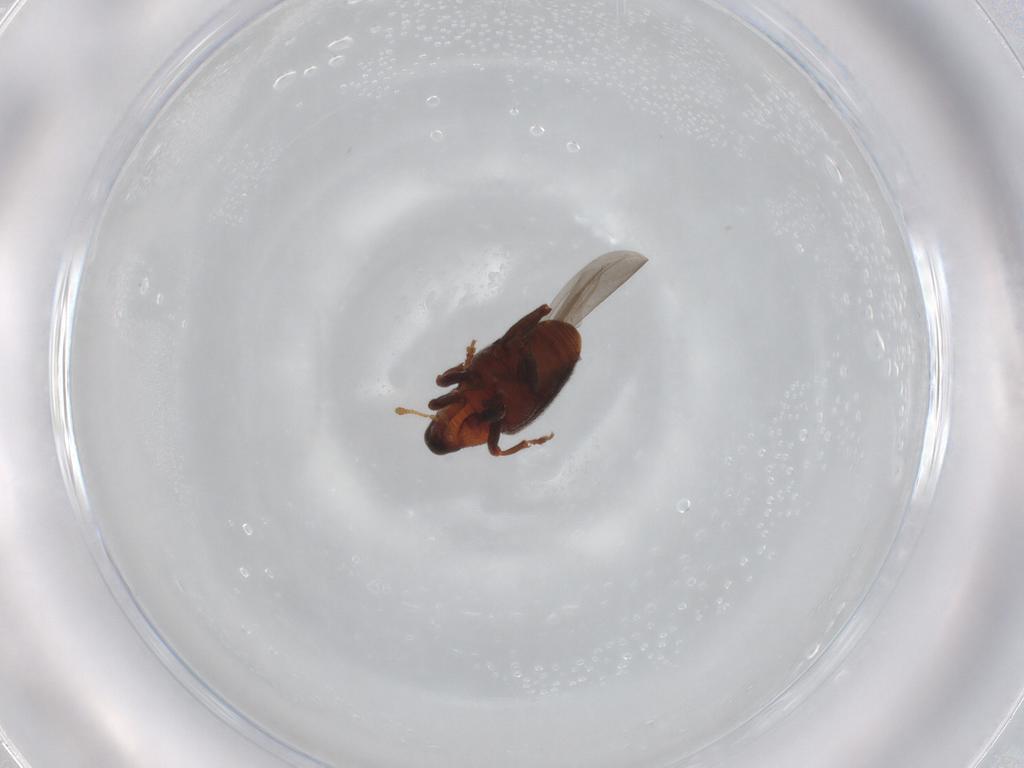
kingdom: Animalia
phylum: Arthropoda
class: Insecta
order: Coleoptera
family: Curculionidae
